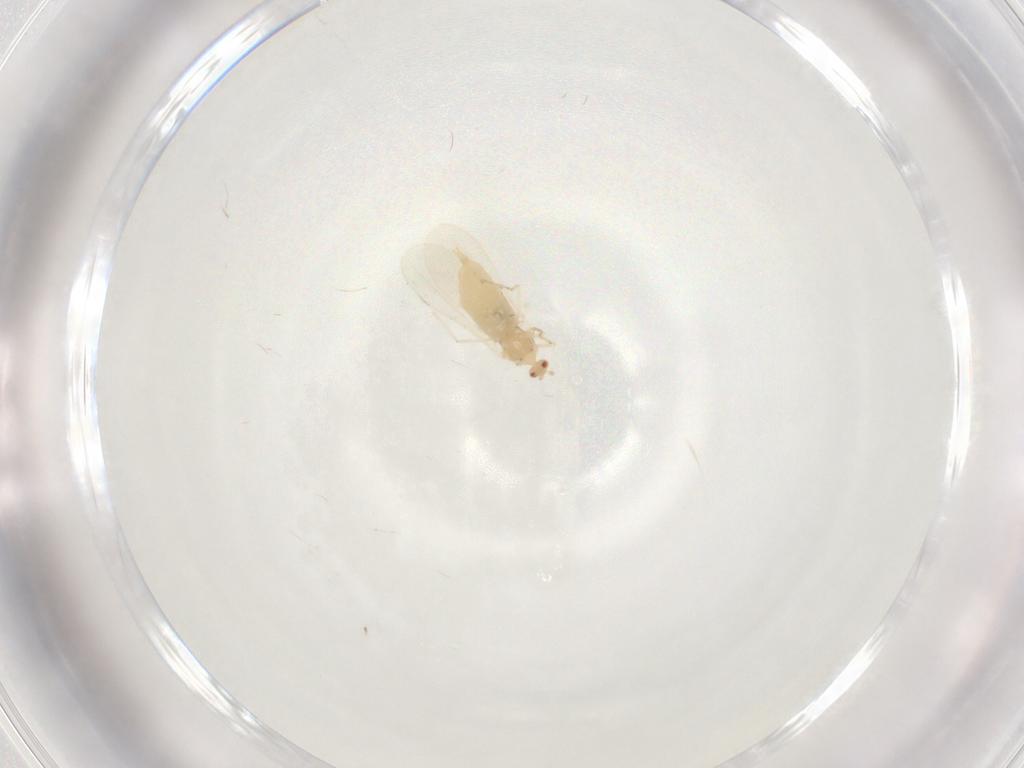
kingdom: Animalia
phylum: Arthropoda
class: Insecta
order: Diptera
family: Cecidomyiidae
